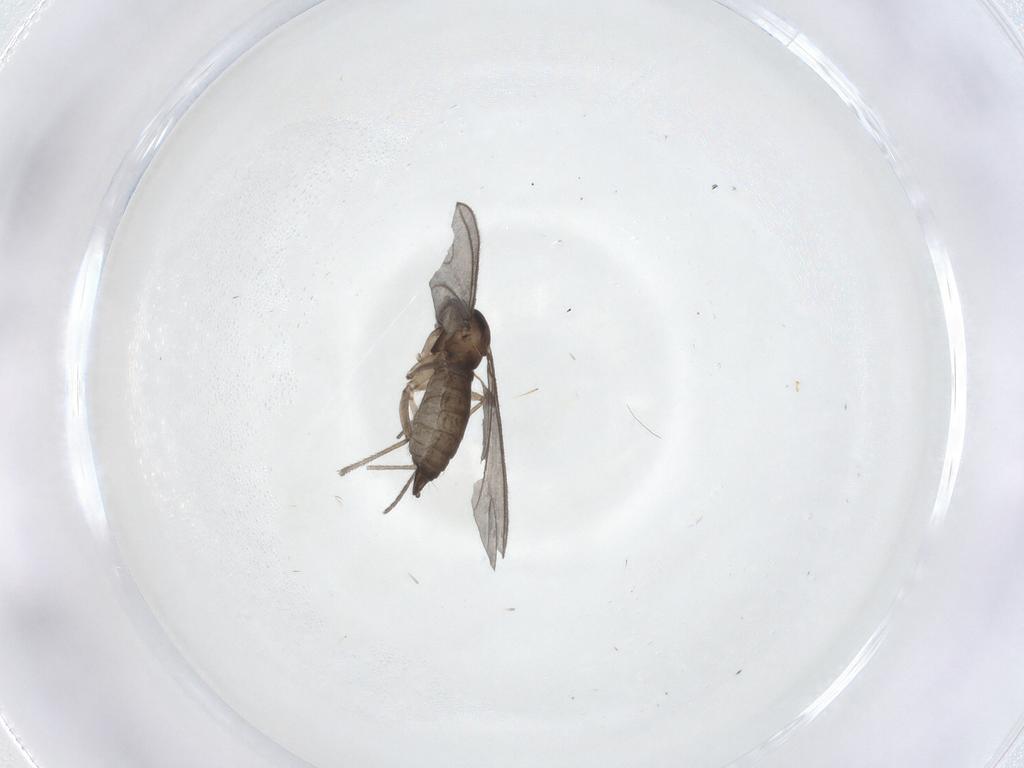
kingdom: Animalia
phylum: Arthropoda
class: Insecta
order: Diptera
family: Sciaridae
